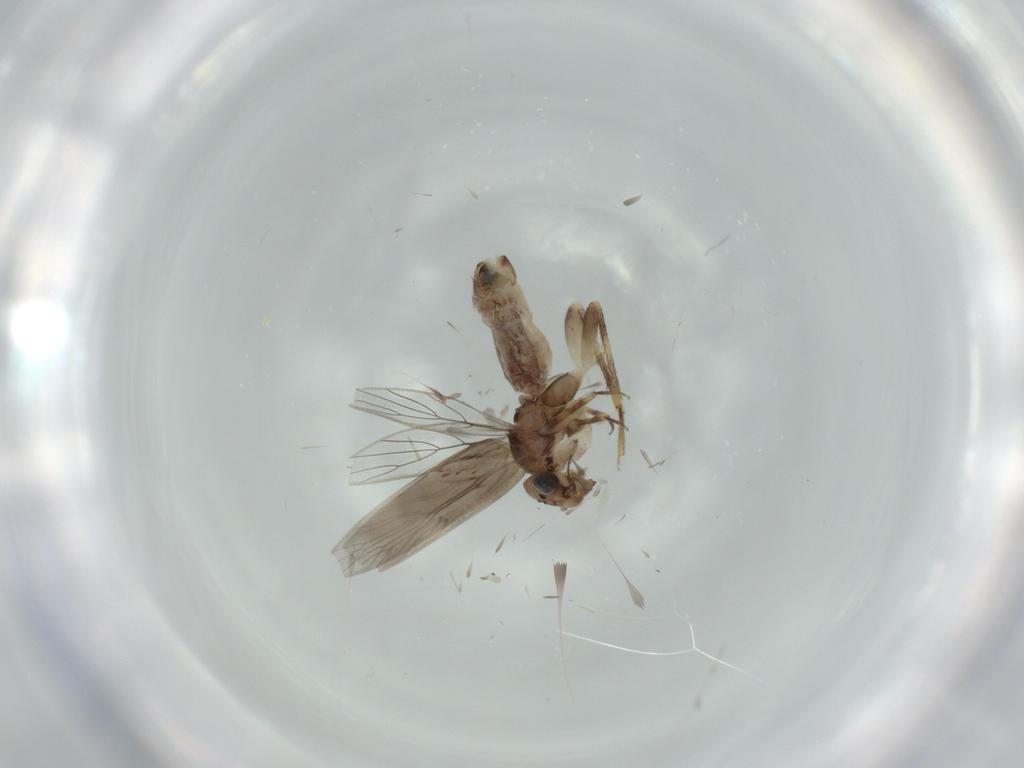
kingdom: Animalia
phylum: Arthropoda
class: Insecta
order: Psocodea
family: Lepidopsocidae
